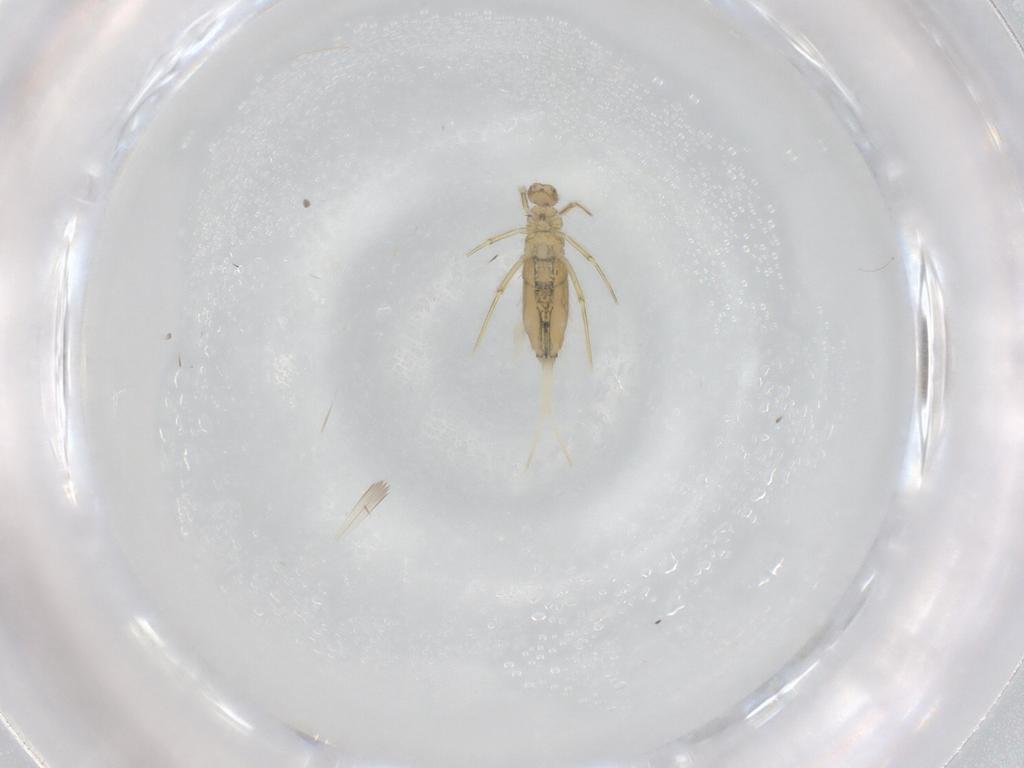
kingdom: Animalia
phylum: Arthropoda
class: Collembola
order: Entomobryomorpha
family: Paronellidae
